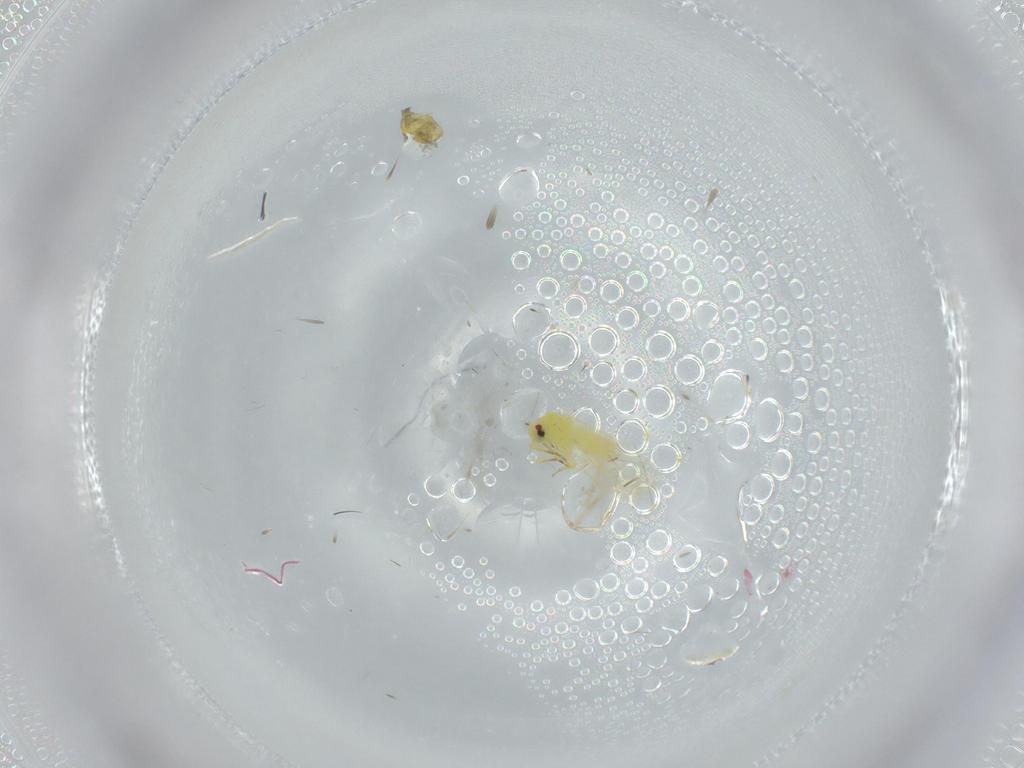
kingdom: Animalia
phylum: Arthropoda
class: Insecta
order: Hemiptera
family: Aleyrodidae
